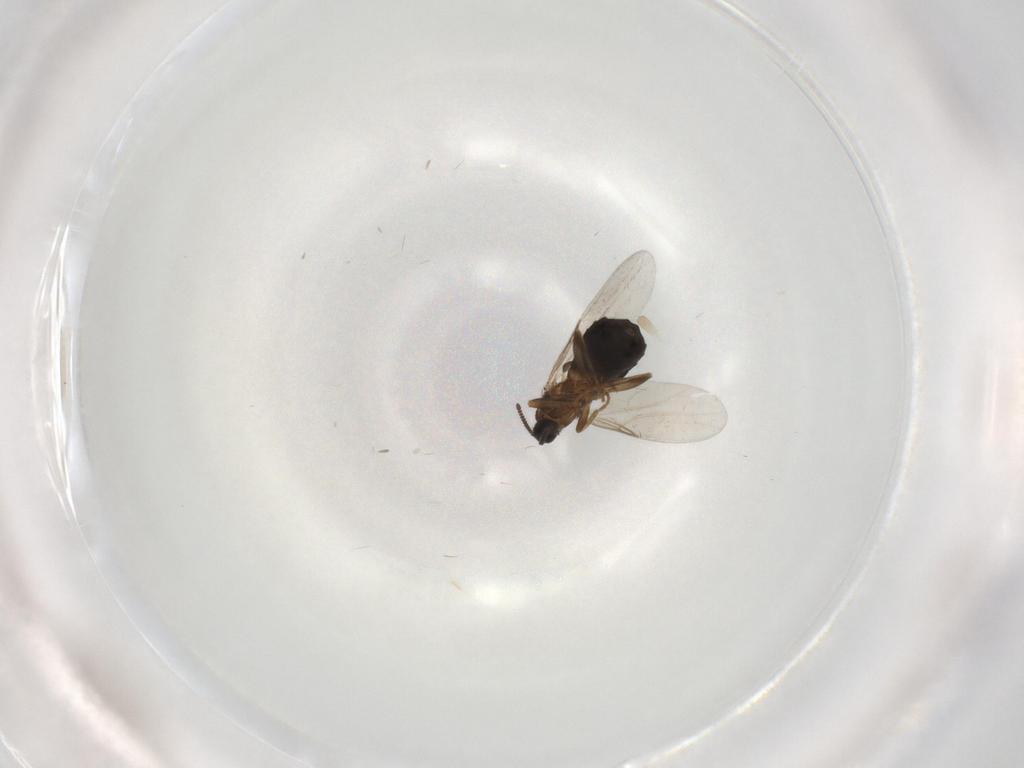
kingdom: Animalia
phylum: Arthropoda
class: Insecta
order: Diptera
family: Scatopsidae
